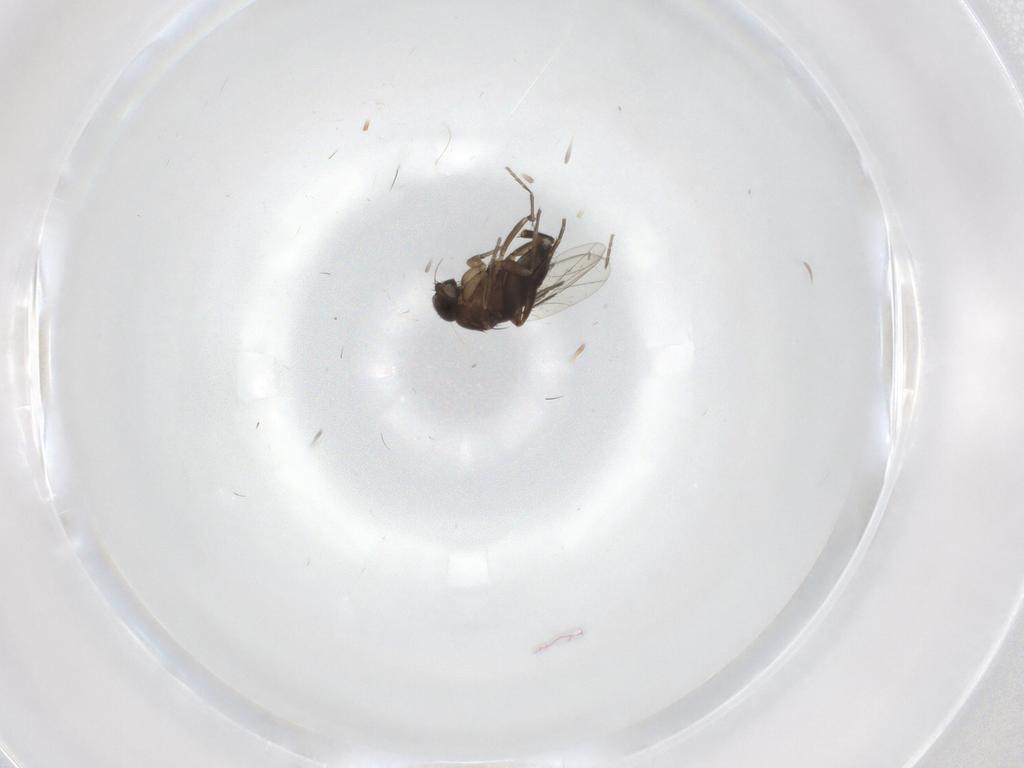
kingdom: Animalia
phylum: Arthropoda
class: Insecta
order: Diptera
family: Phoridae
